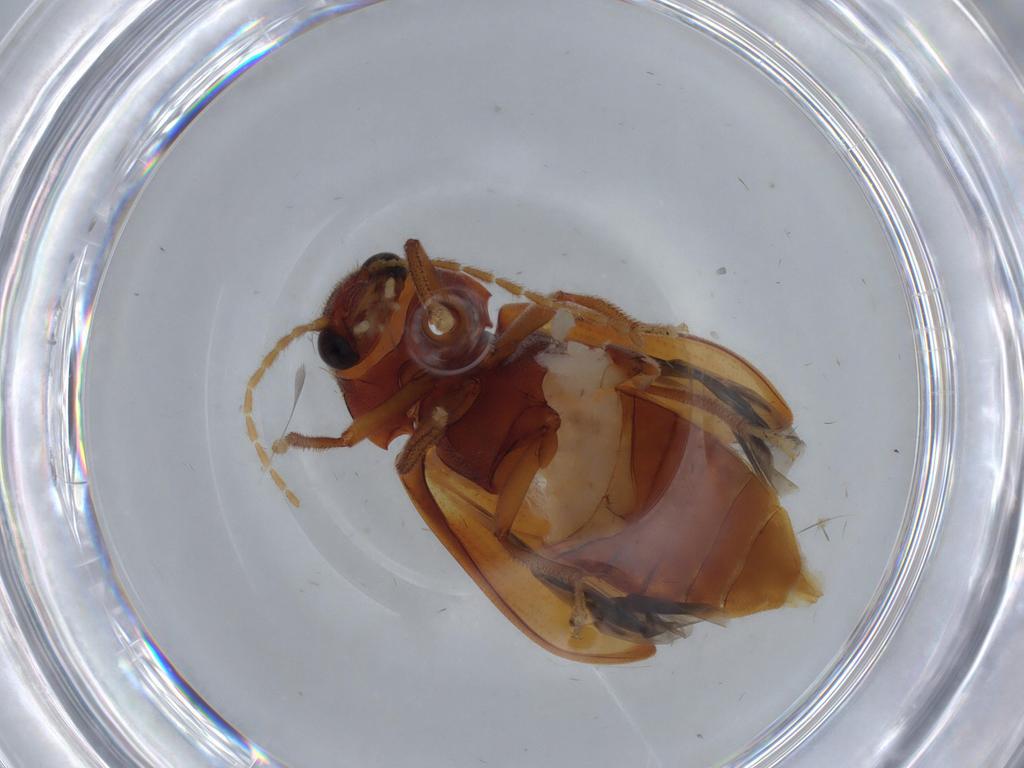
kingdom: Animalia
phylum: Arthropoda
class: Insecta
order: Coleoptera
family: Ptilodactylidae
